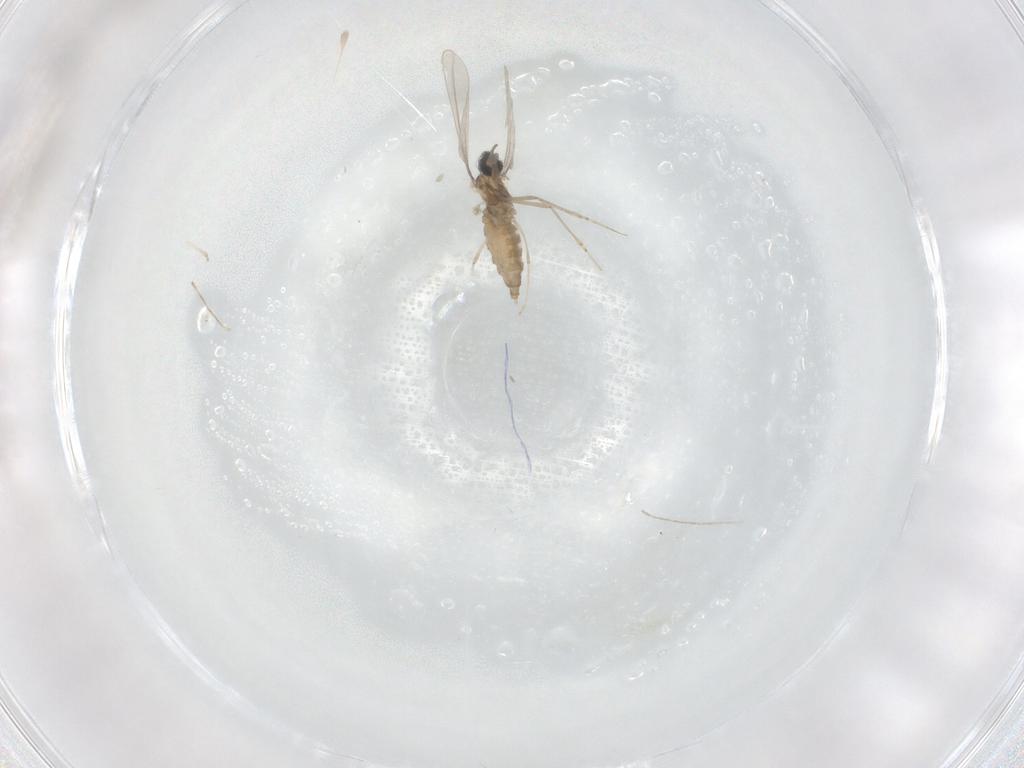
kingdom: Animalia
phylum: Arthropoda
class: Insecta
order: Diptera
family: Cecidomyiidae
